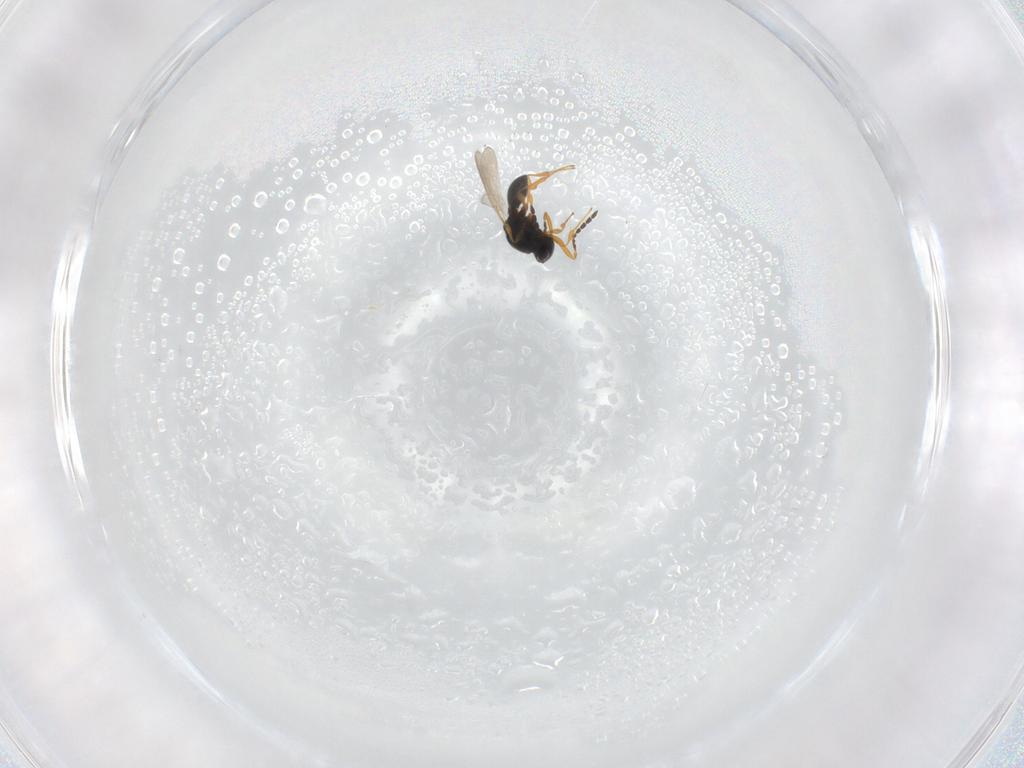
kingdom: Animalia
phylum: Arthropoda
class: Insecta
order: Hymenoptera
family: Platygastridae
